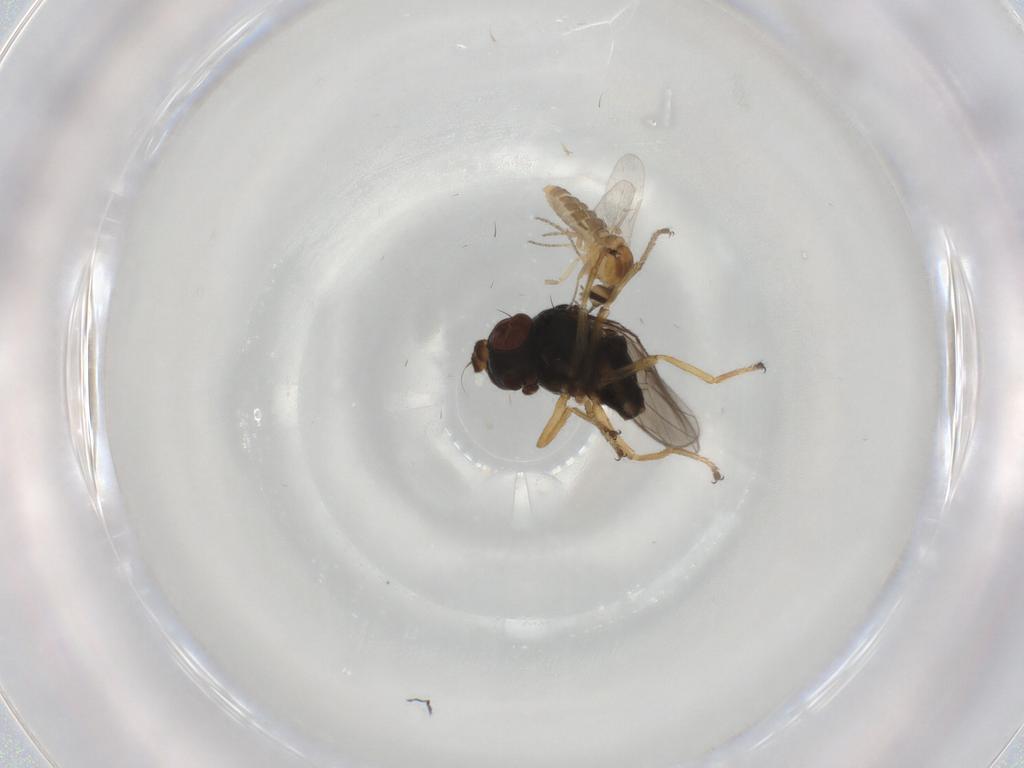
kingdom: Animalia
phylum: Arthropoda
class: Insecta
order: Diptera
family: Ephydridae
